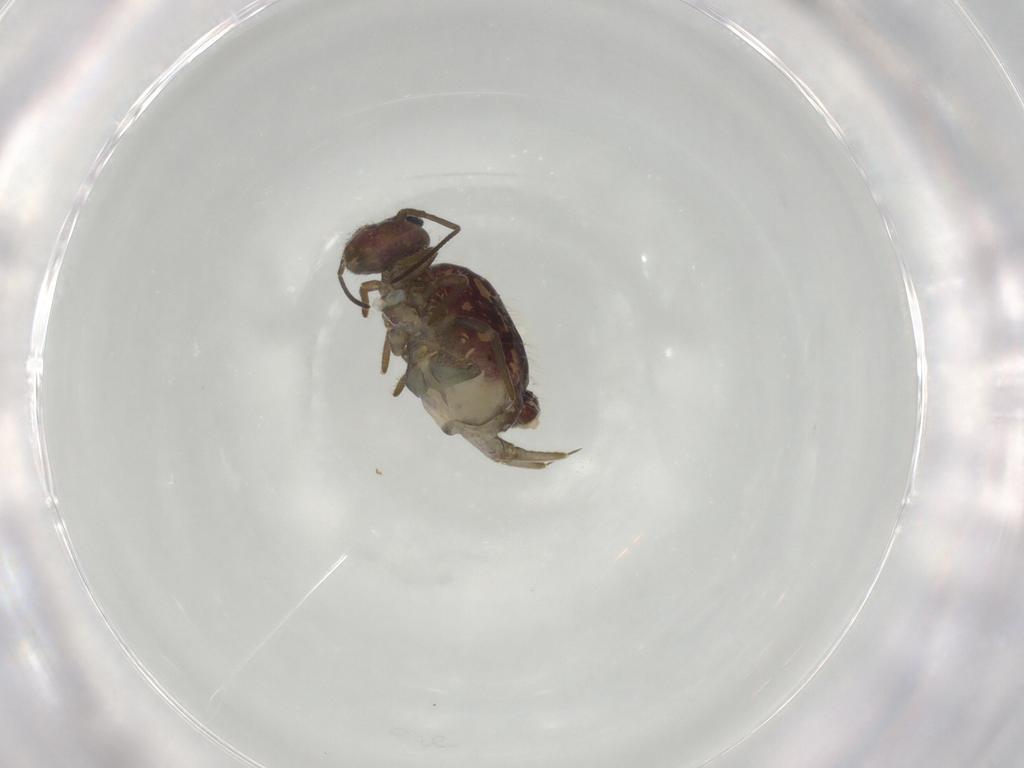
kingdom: Animalia
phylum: Arthropoda
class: Collembola
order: Symphypleona
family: Sminthuridae
